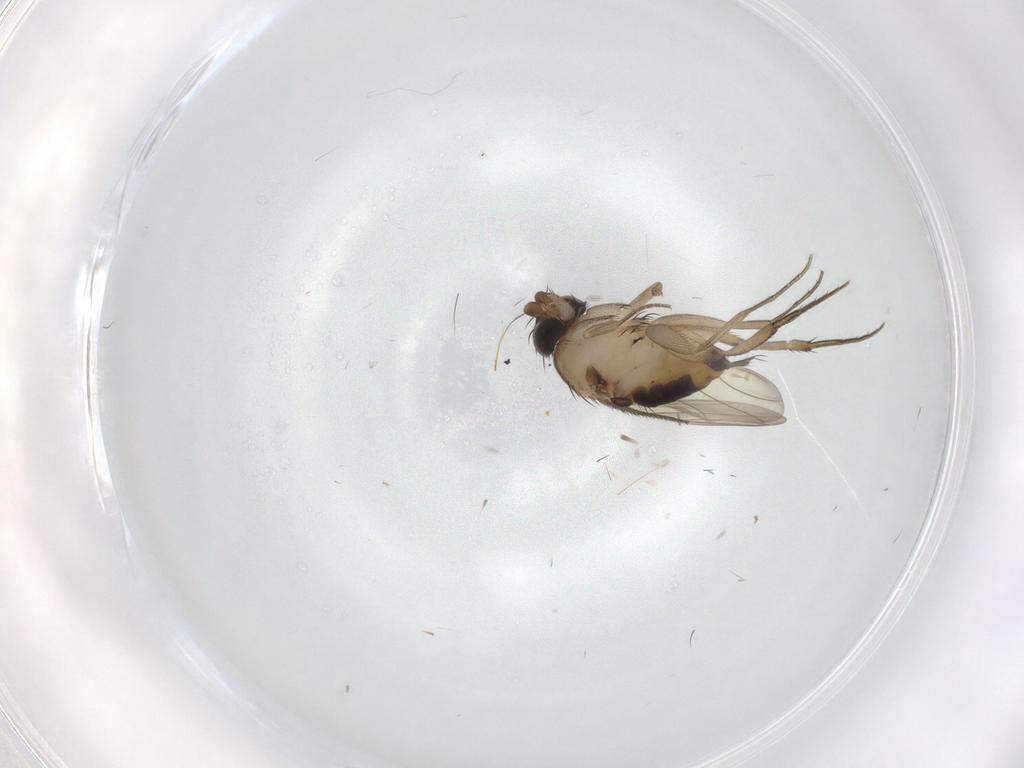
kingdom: Animalia
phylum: Arthropoda
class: Insecta
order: Diptera
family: Phoridae
